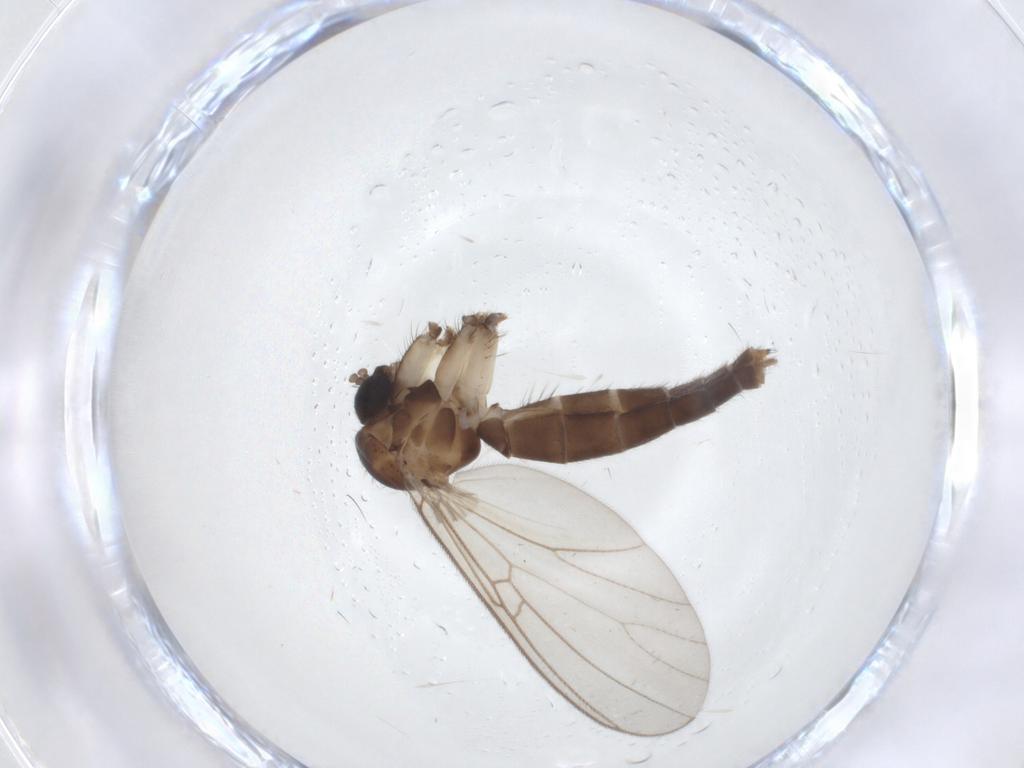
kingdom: Animalia
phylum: Arthropoda
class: Insecta
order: Diptera
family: Mycetophilidae
